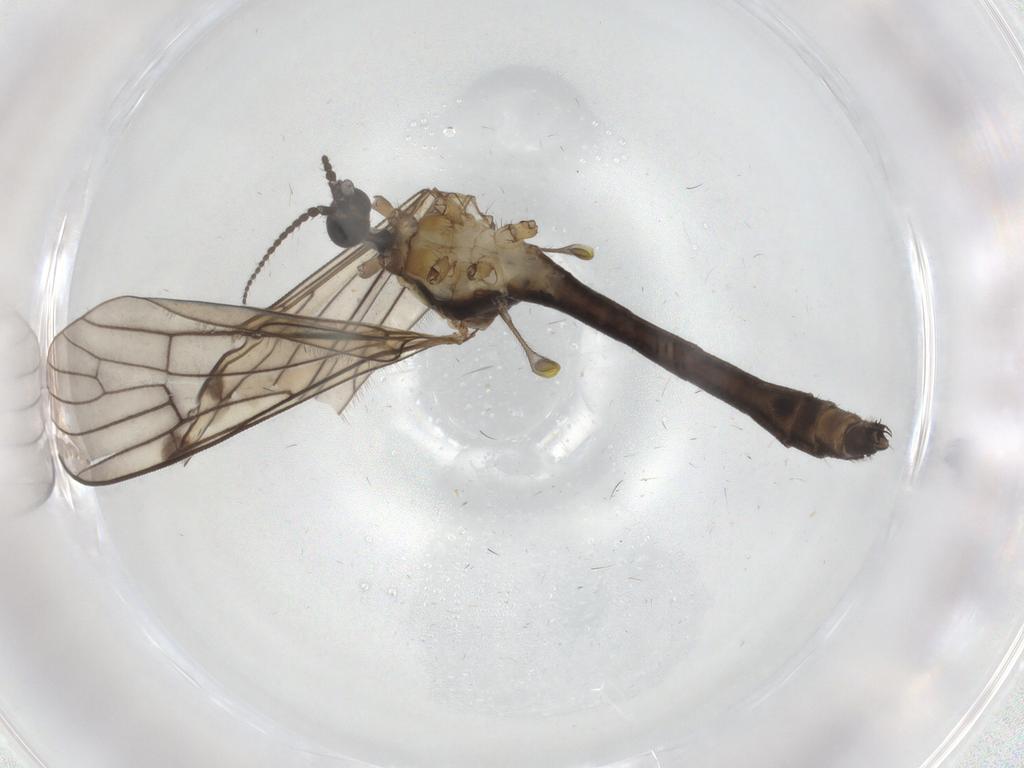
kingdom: Animalia
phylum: Arthropoda
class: Insecta
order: Diptera
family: Limoniidae
